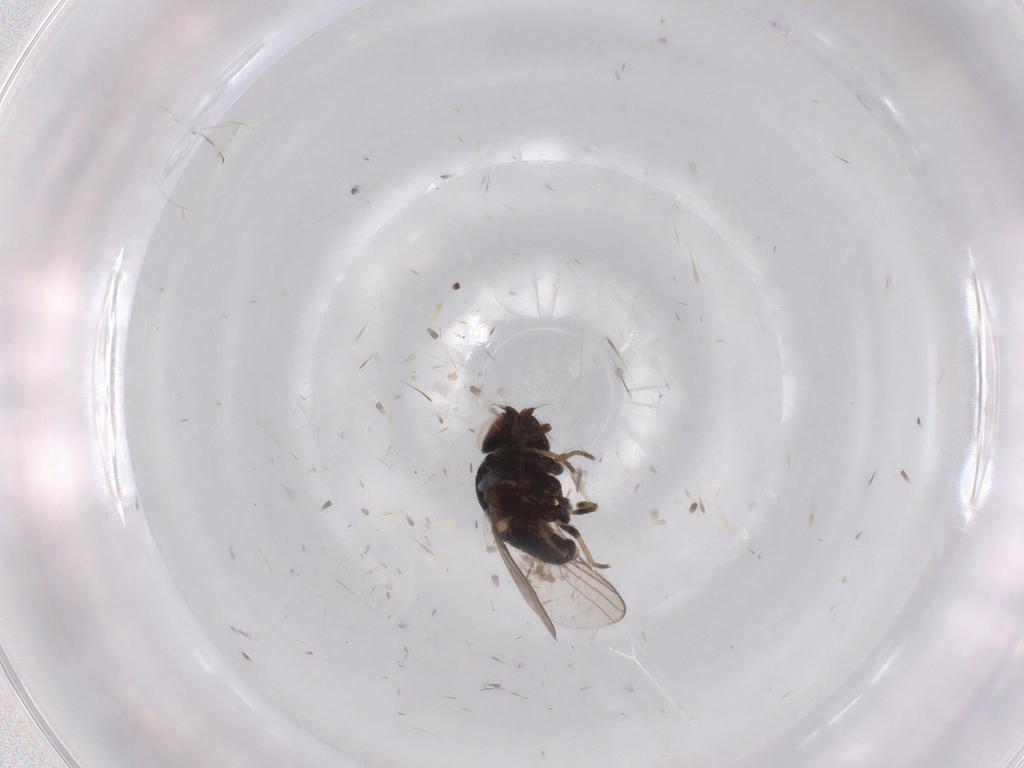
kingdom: Animalia
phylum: Arthropoda
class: Insecta
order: Diptera
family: Chloropidae
